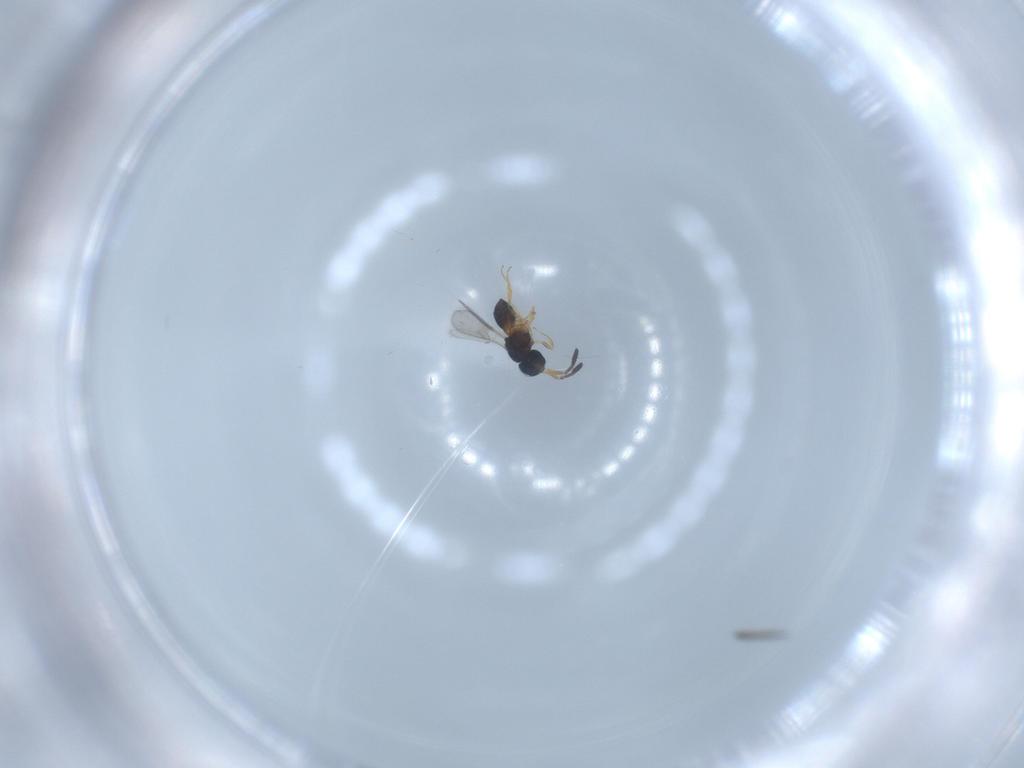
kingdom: Animalia
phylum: Arthropoda
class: Insecta
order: Hymenoptera
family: Scelionidae
